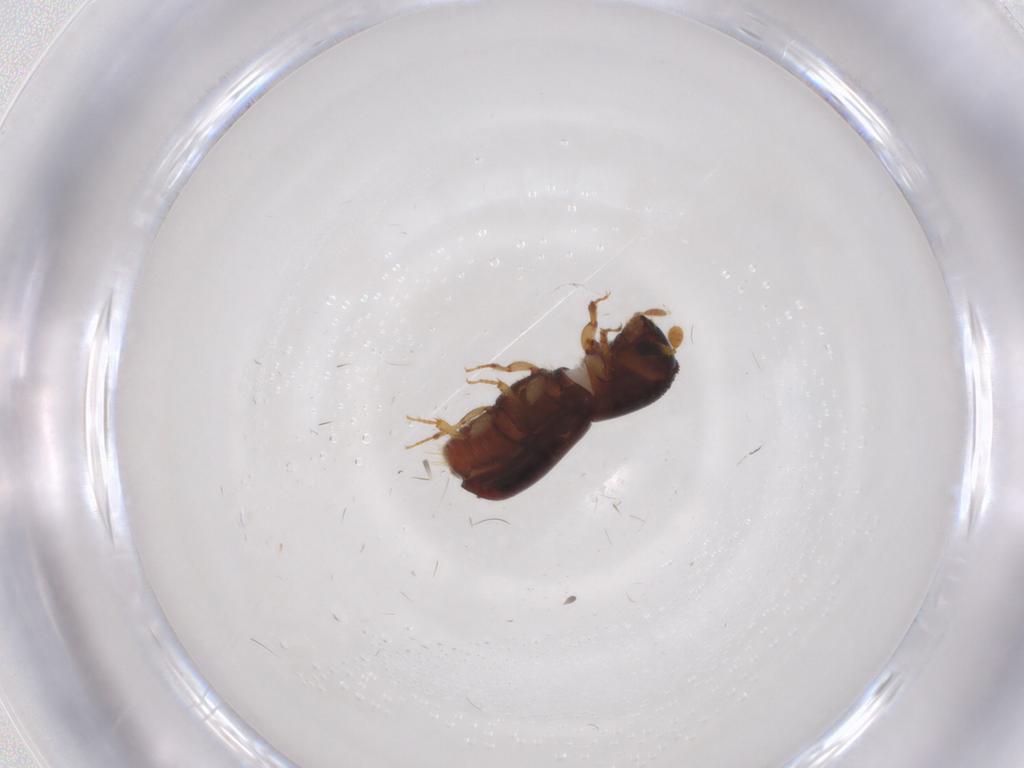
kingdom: Animalia
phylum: Arthropoda
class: Insecta
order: Coleoptera
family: Curculionidae
